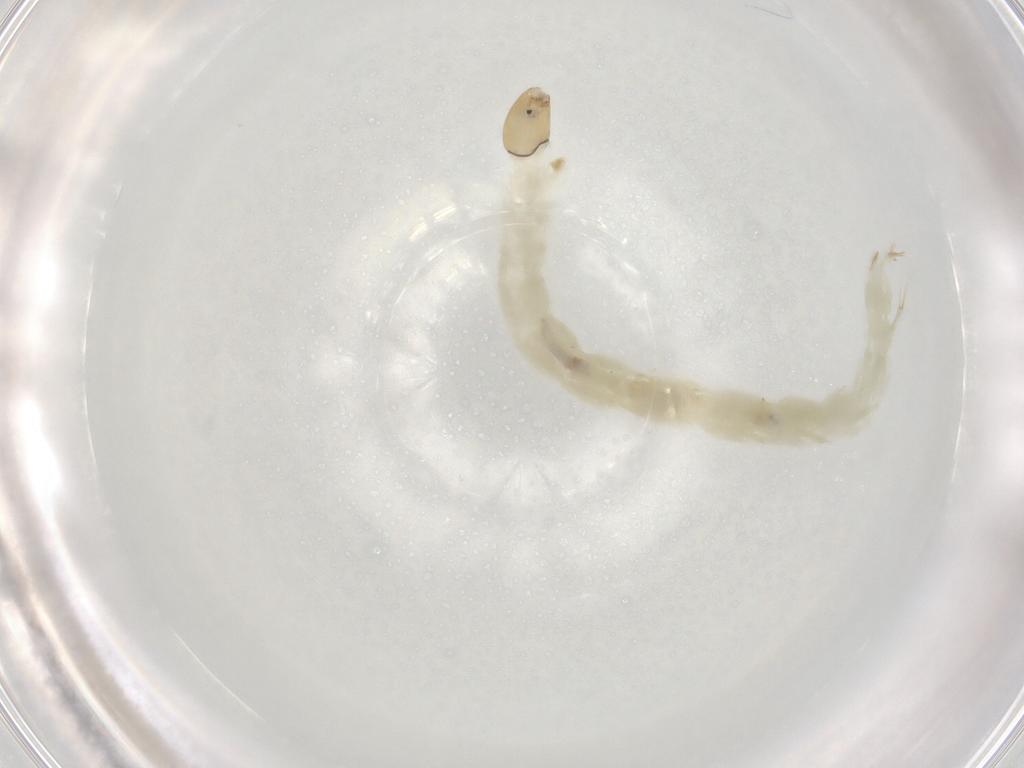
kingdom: Animalia
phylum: Arthropoda
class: Insecta
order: Diptera
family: Chironomidae
